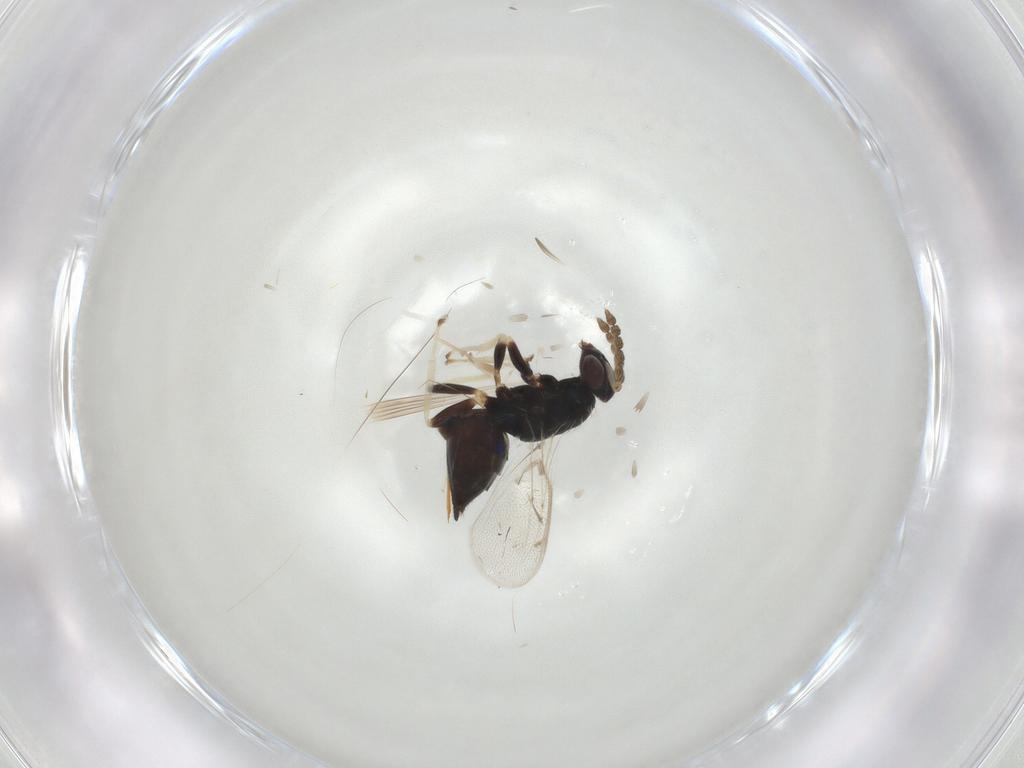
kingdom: Animalia
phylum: Arthropoda
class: Insecta
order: Hymenoptera
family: Eulophidae
